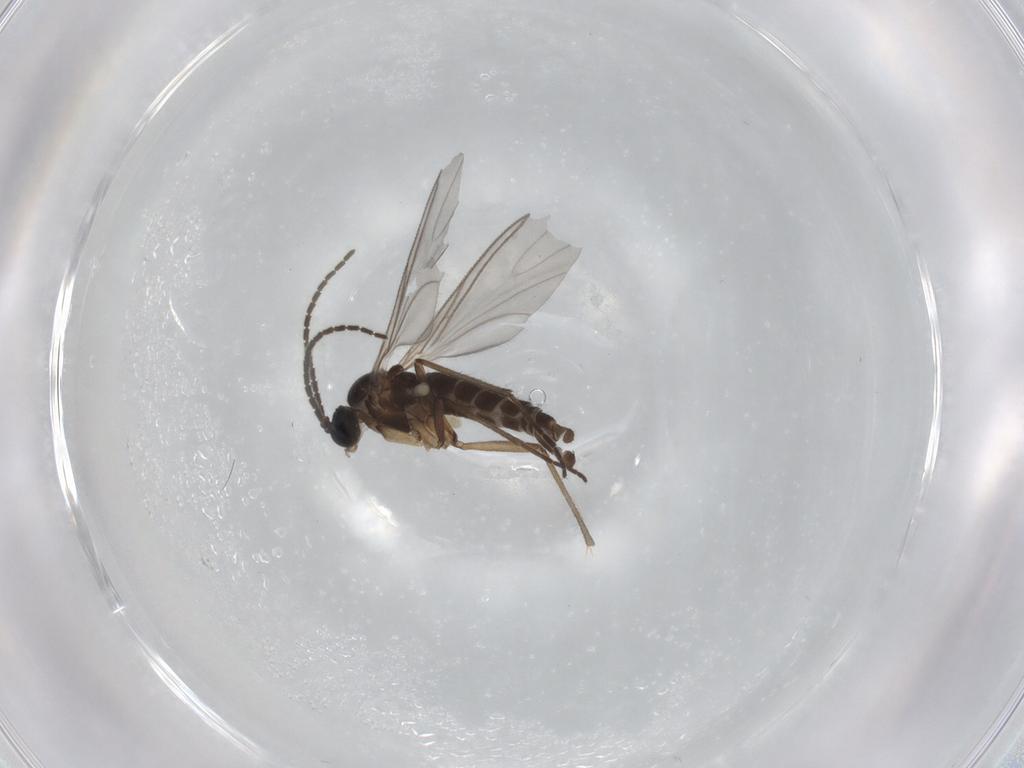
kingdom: Animalia
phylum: Arthropoda
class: Insecta
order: Diptera
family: Sciaridae
